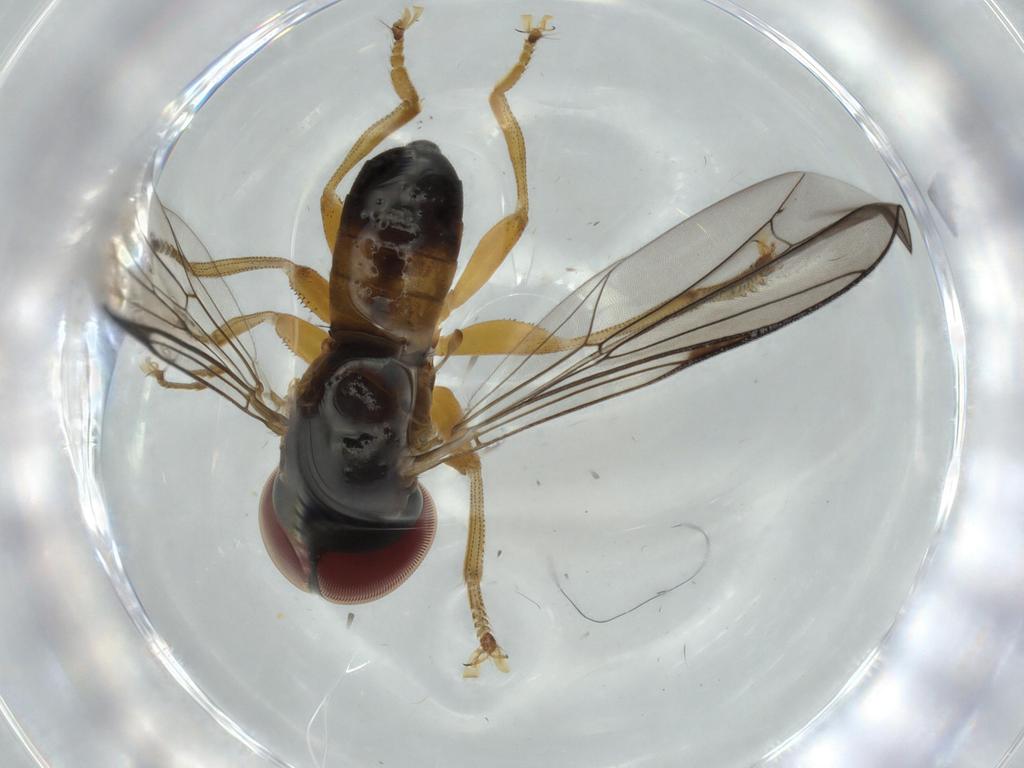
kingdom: Animalia
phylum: Arthropoda
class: Insecta
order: Diptera
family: Pipunculidae
